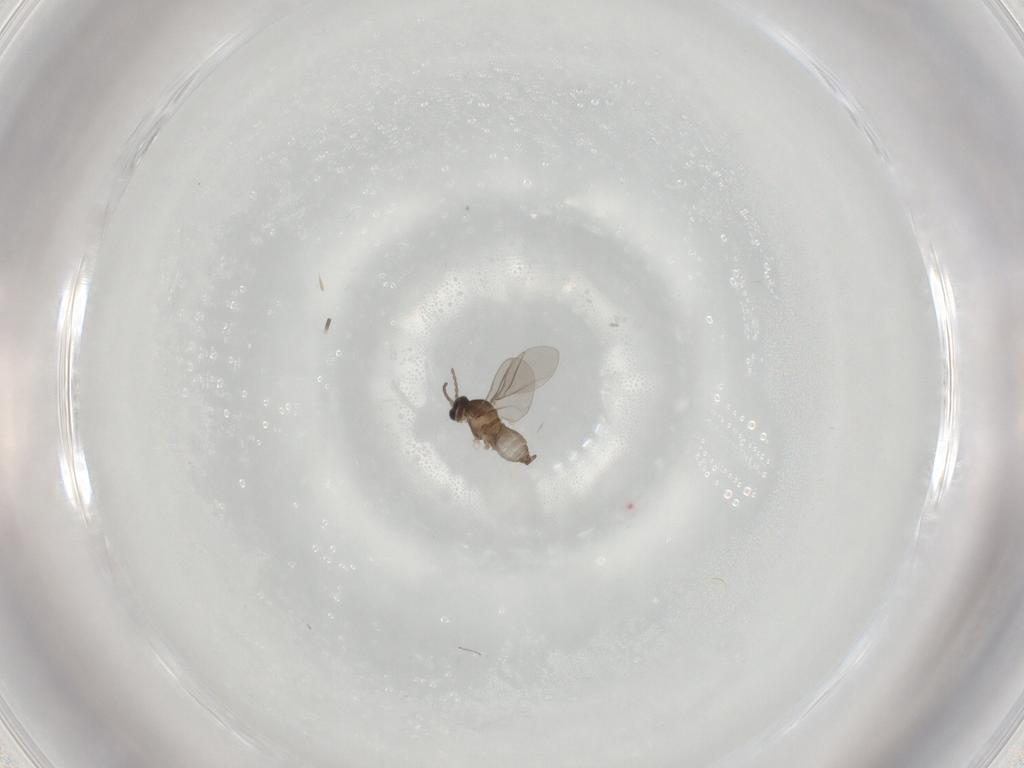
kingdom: Animalia
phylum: Arthropoda
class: Insecta
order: Diptera
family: Cecidomyiidae
